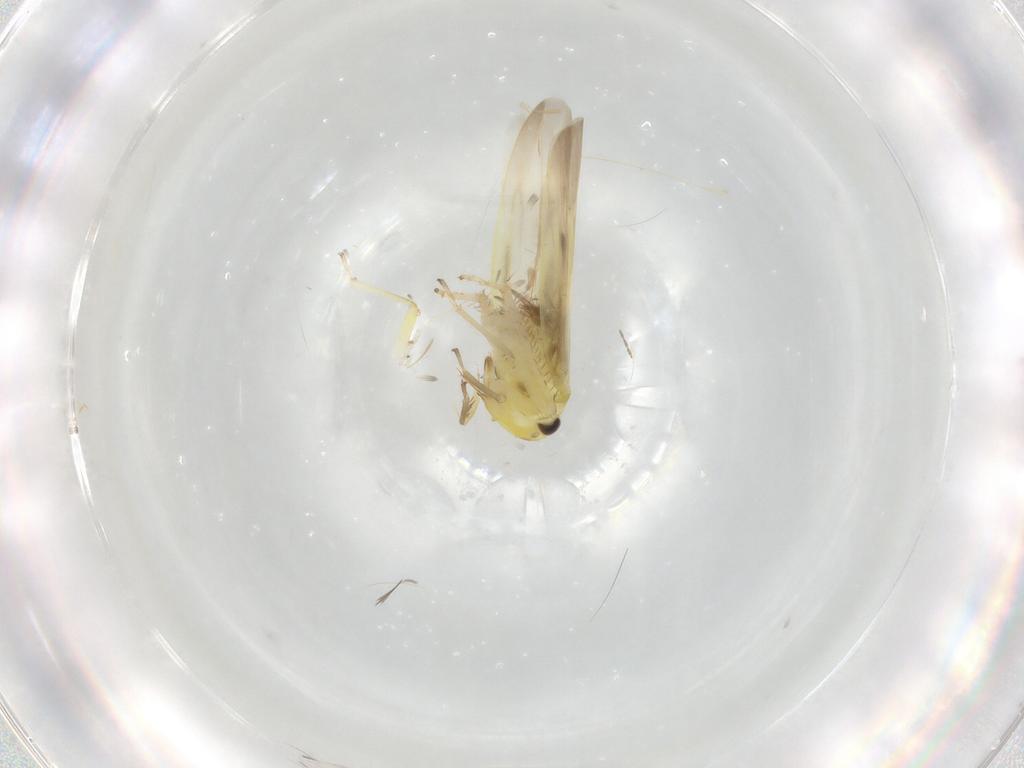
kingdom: Animalia
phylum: Arthropoda
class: Insecta
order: Hemiptera
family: Cicadellidae
